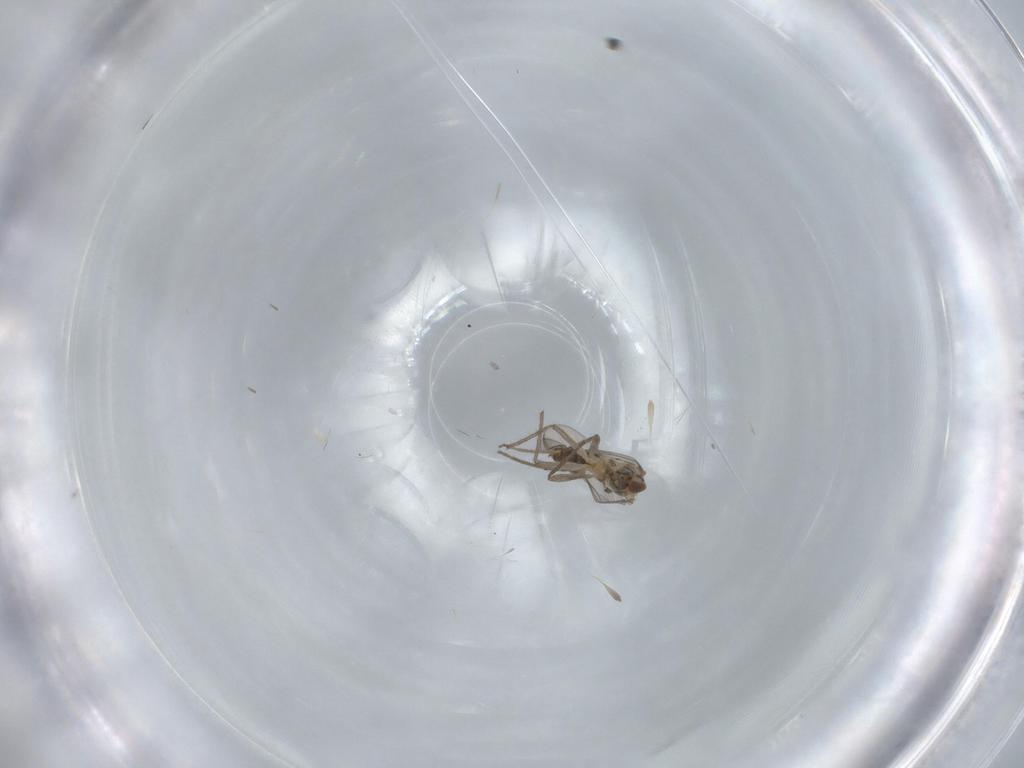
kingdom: Animalia
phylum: Arthropoda
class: Insecta
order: Diptera
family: Chironomidae
